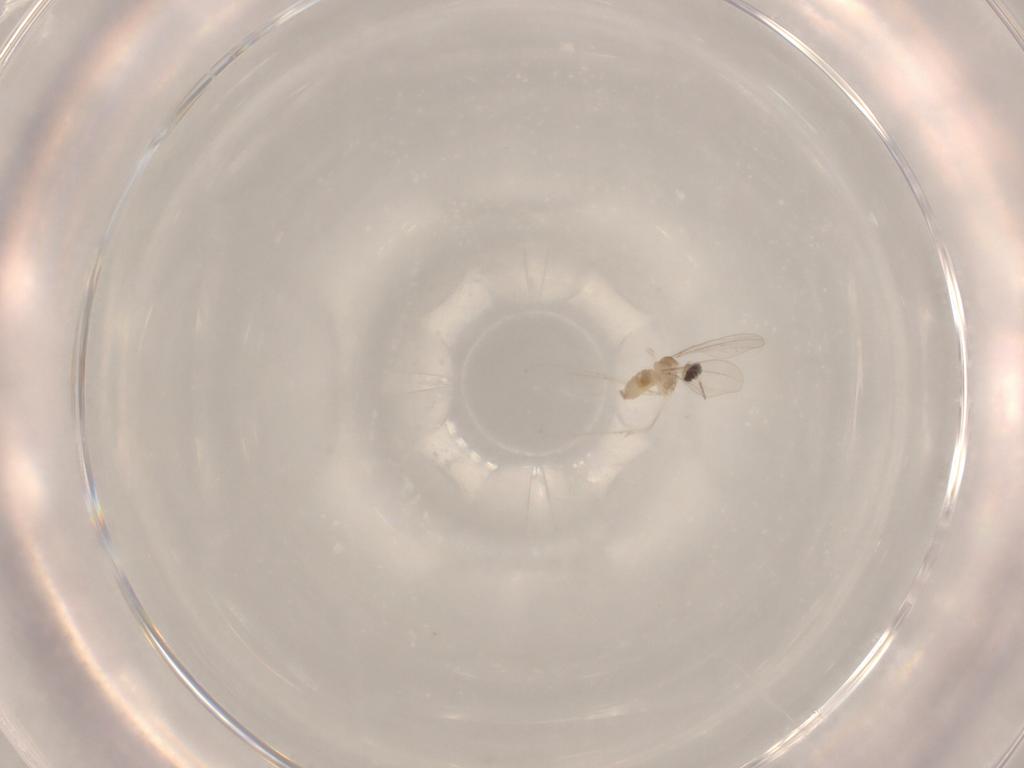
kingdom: Animalia
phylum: Arthropoda
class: Insecta
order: Diptera
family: Cecidomyiidae
